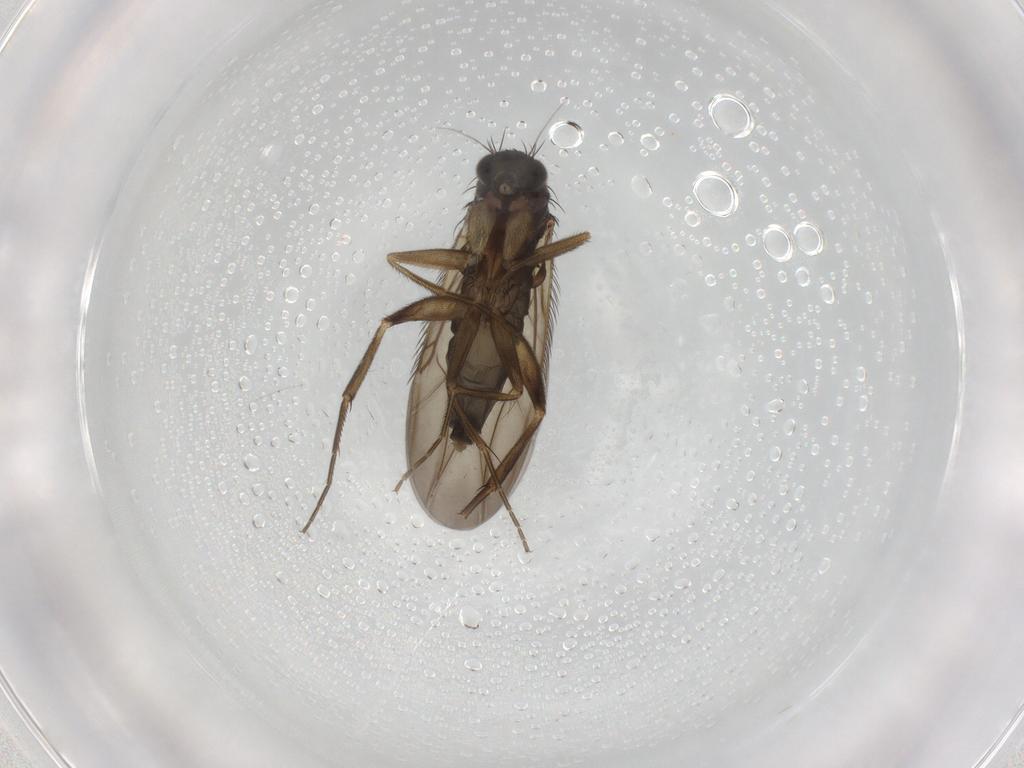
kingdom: Animalia
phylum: Arthropoda
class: Insecta
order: Diptera
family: Phoridae
